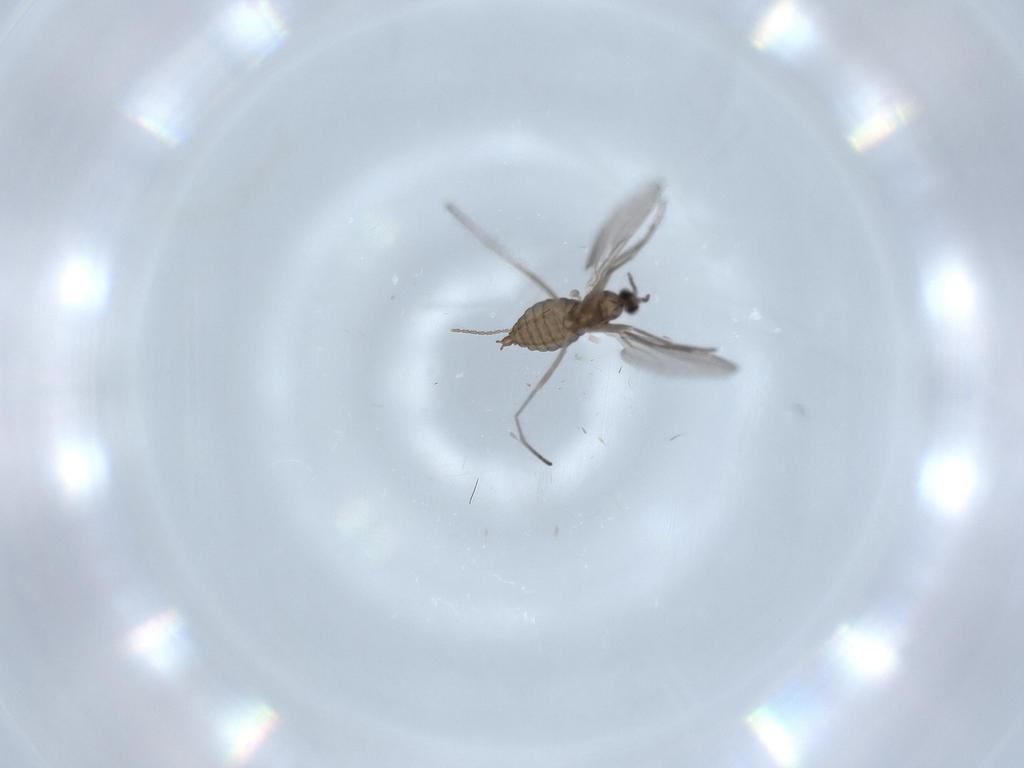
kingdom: Animalia
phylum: Arthropoda
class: Insecta
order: Diptera
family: Cecidomyiidae
